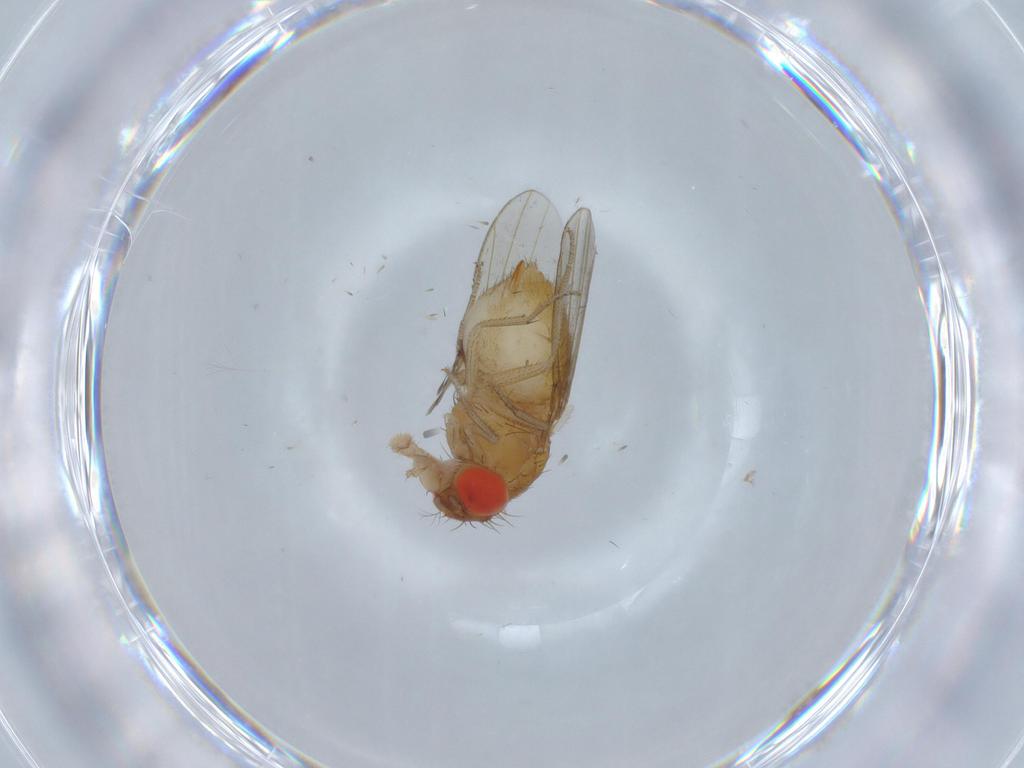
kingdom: Animalia
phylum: Arthropoda
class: Insecta
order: Diptera
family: Drosophilidae
